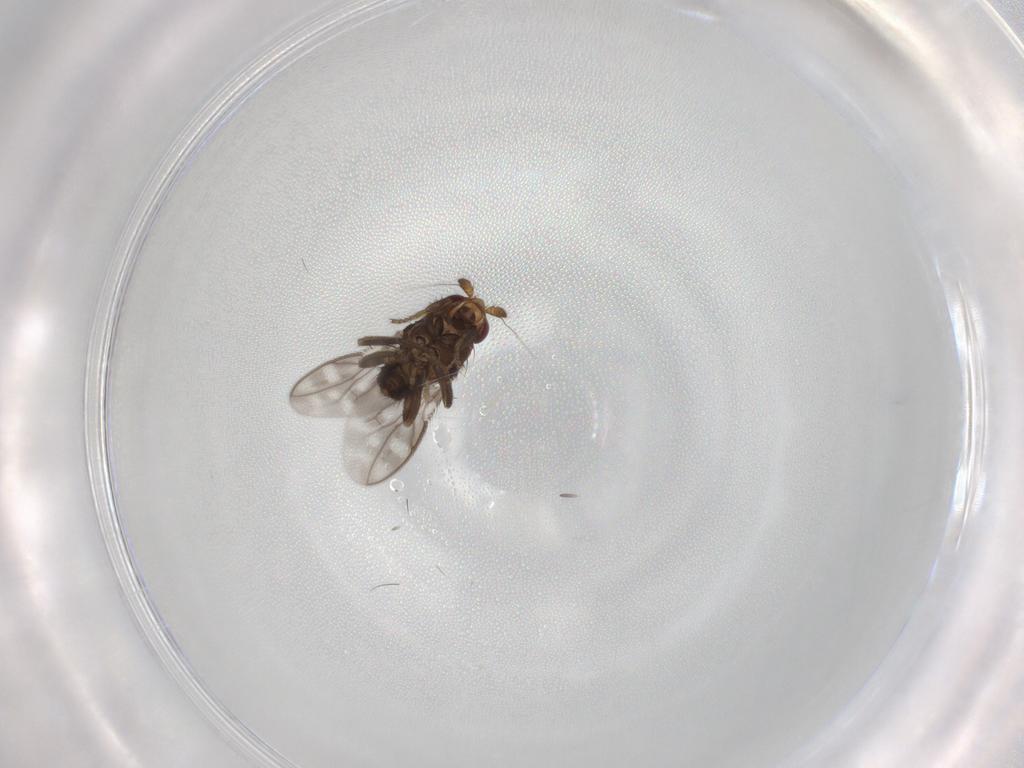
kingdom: Animalia
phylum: Arthropoda
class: Insecta
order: Diptera
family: Sphaeroceridae
